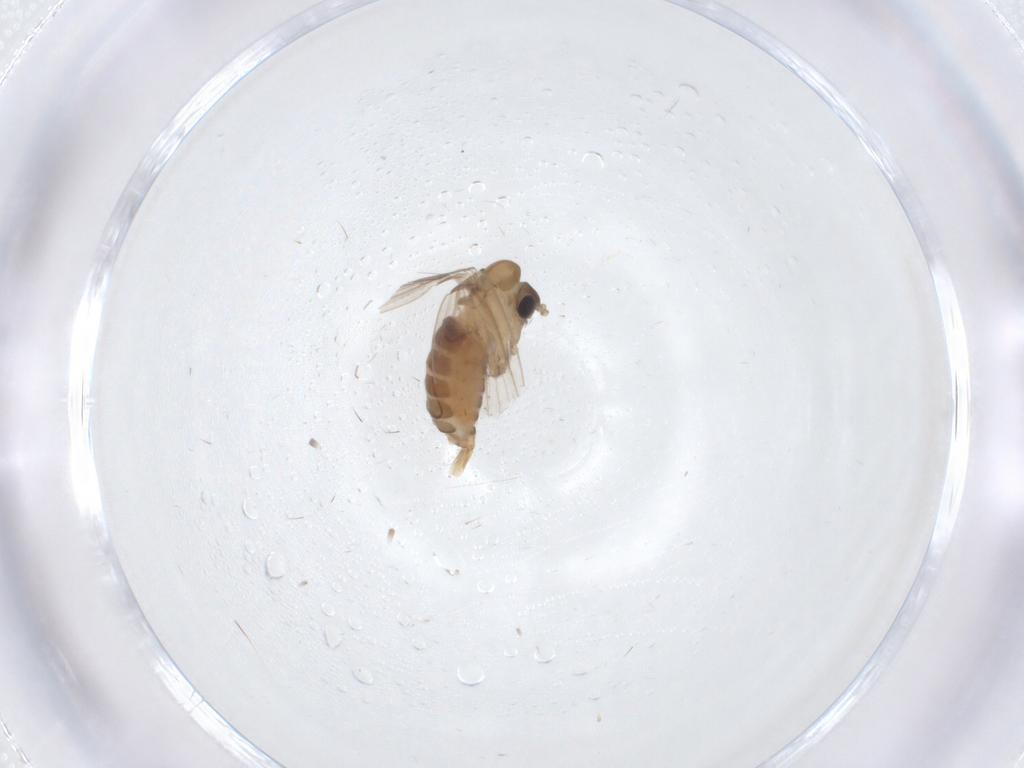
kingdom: Animalia
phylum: Arthropoda
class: Insecta
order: Diptera
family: Psychodidae
